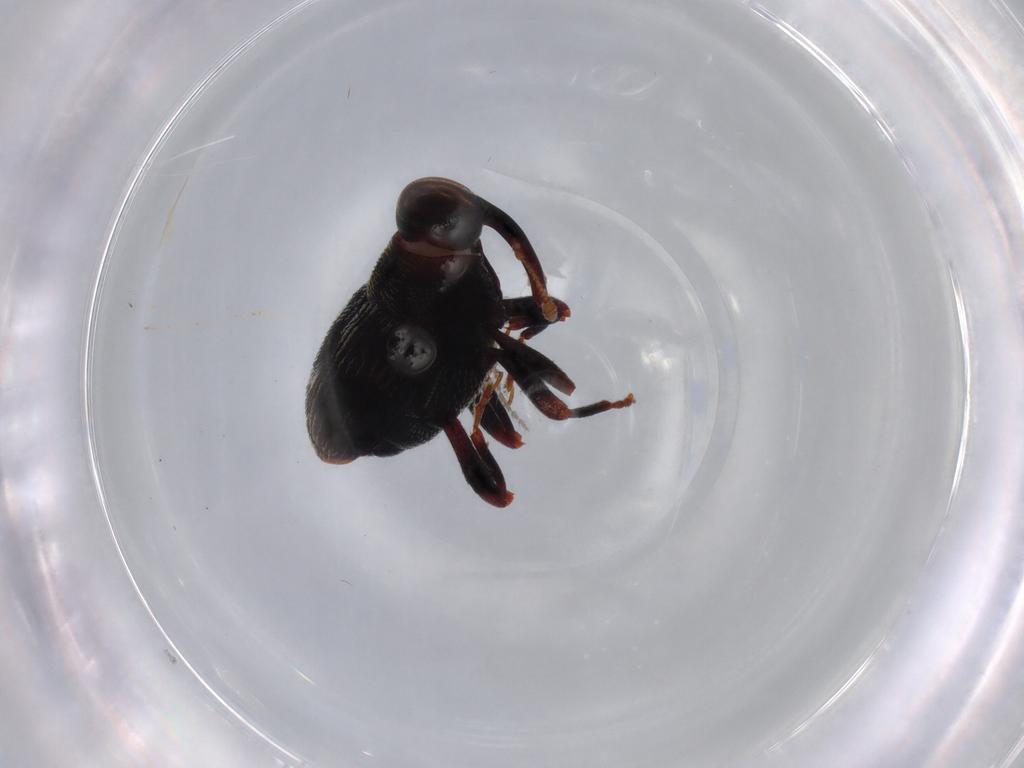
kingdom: Animalia
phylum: Arthropoda
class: Insecta
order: Coleoptera
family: Curculionidae
